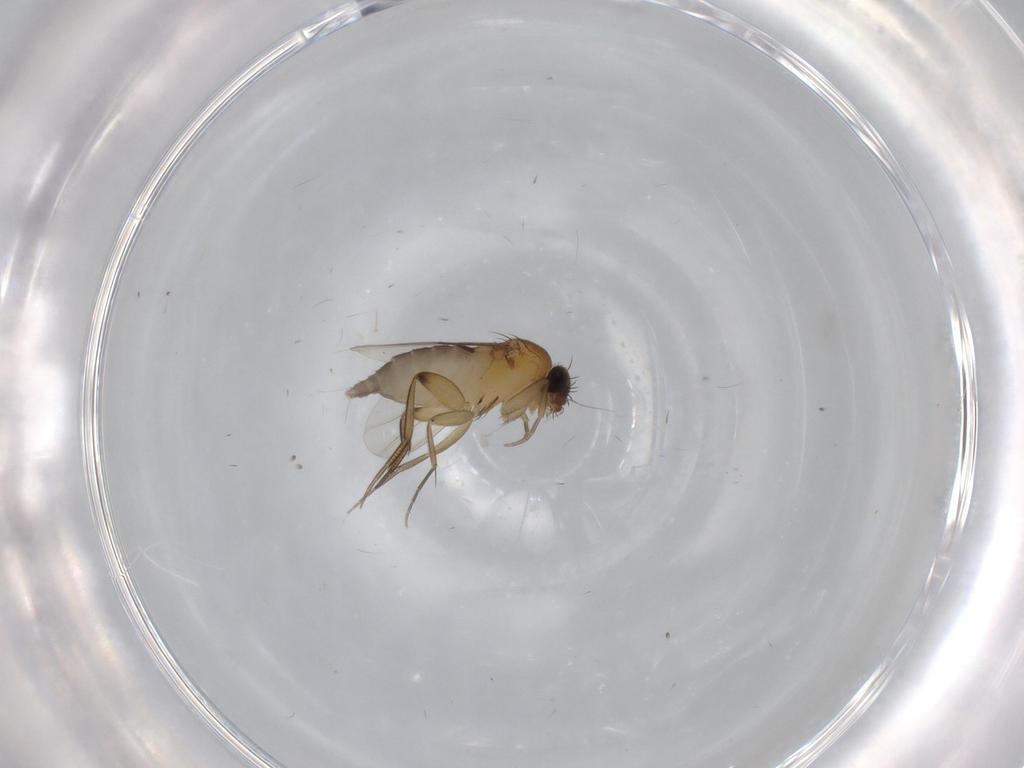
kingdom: Animalia
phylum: Arthropoda
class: Insecta
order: Diptera
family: Phoridae
